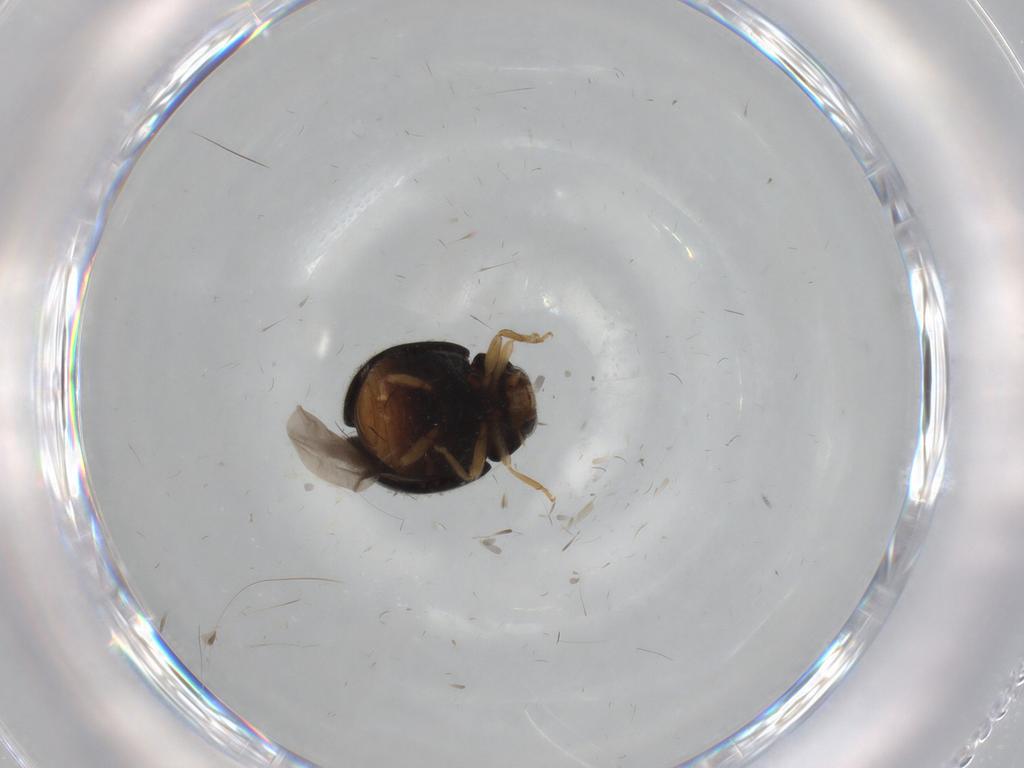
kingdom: Animalia
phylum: Arthropoda
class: Insecta
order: Coleoptera
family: Coccinellidae
